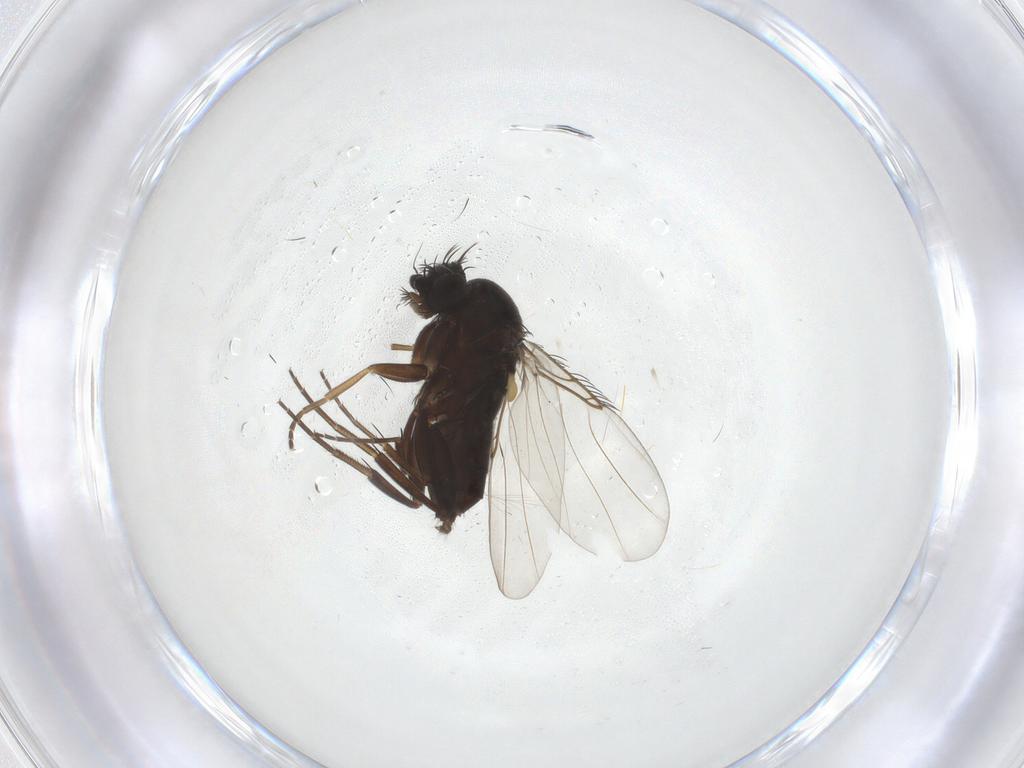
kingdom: Animalia
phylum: Arthropoda
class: Insecta
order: Diptera
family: Phoridae
